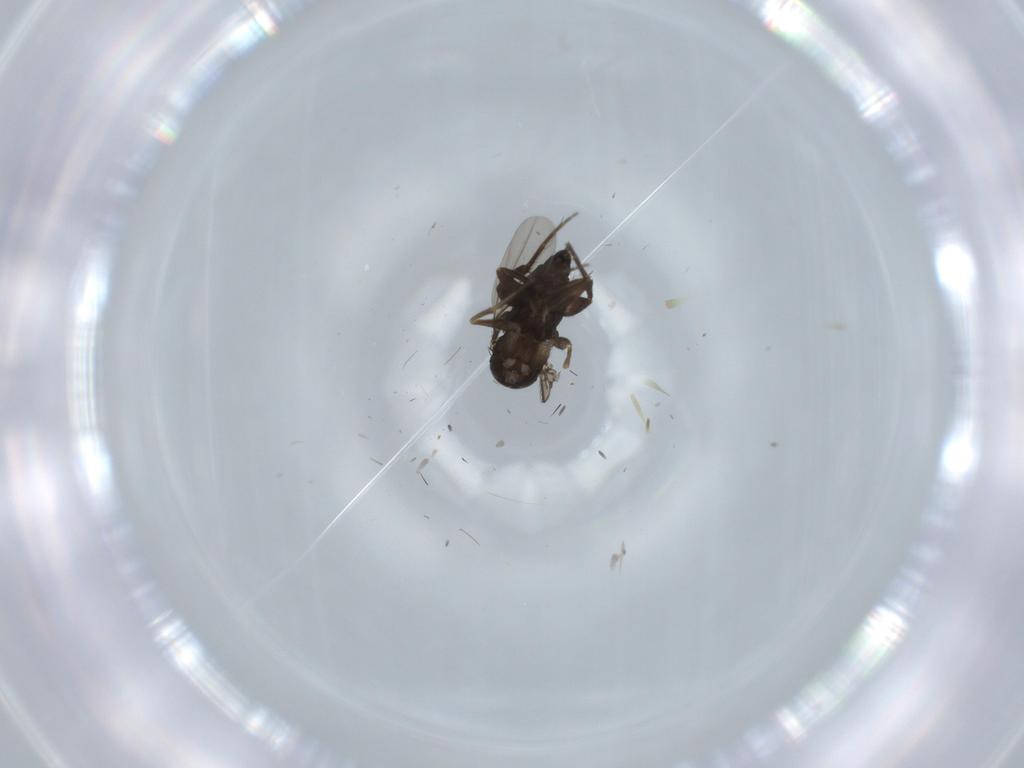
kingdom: Animalia
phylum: Arthropoda
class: Insecta
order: Diptera
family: Phoridae
